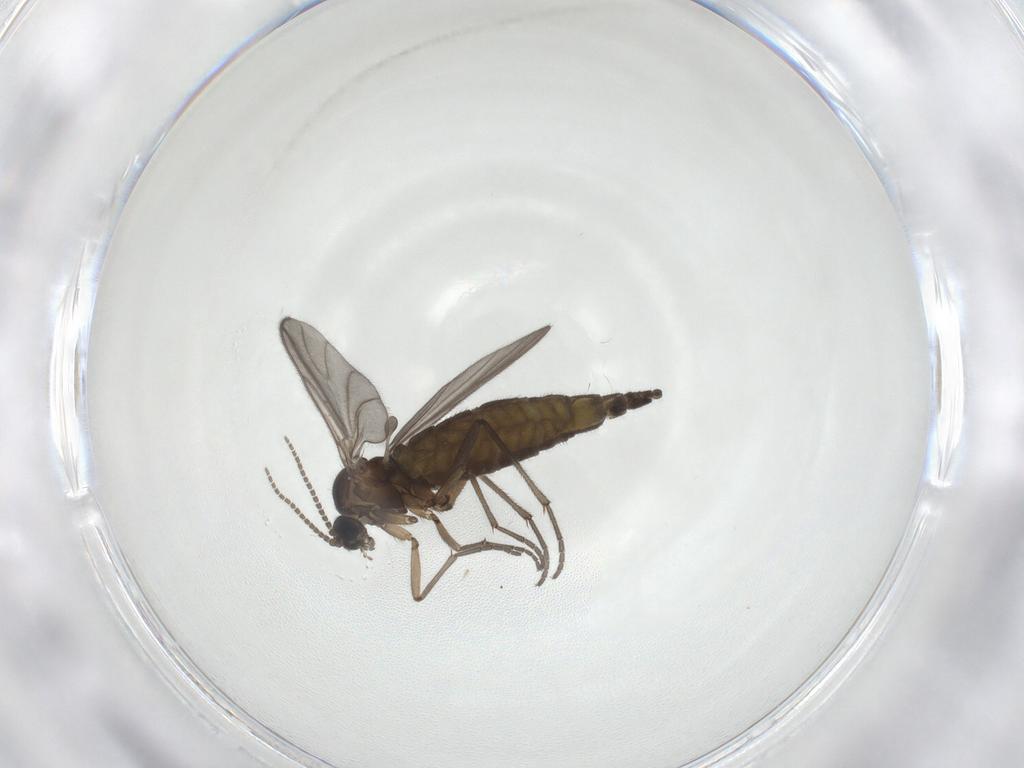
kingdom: Animalia
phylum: Arthropoda
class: Insecta
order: Diptera
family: Sciaridae
